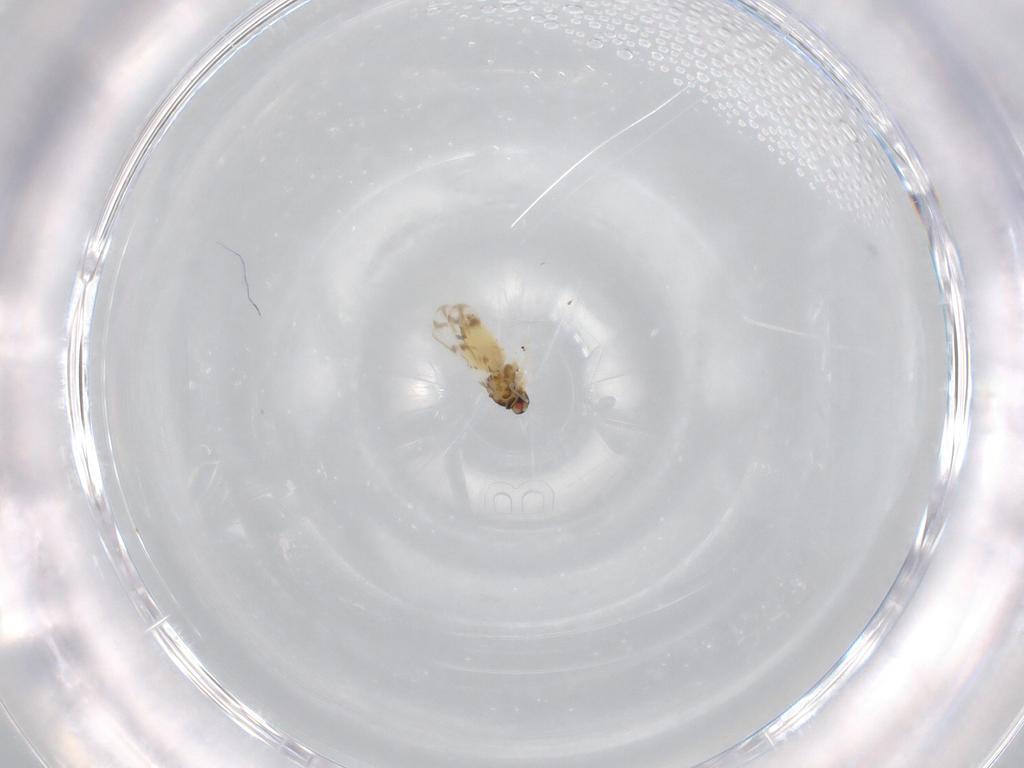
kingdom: Animalia
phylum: Arthropoda
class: Insecta
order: Hemiptera
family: Aleyrodidae
